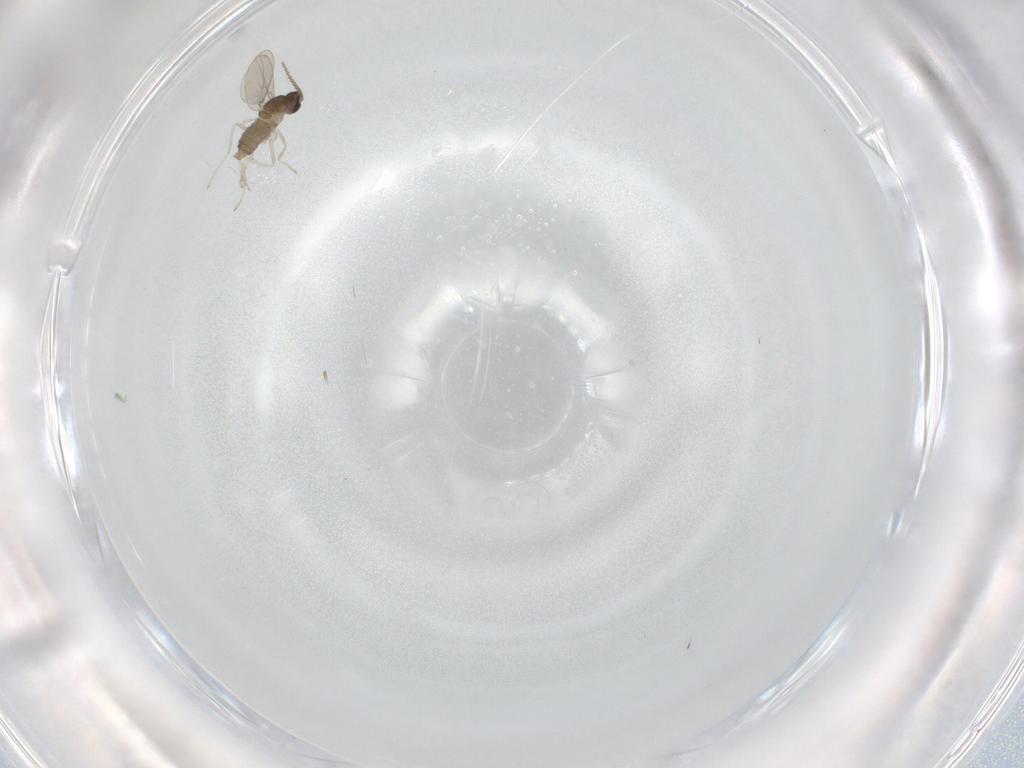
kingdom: Animalia
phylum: Arthropoda
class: Insecta
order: Diptera
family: Cecidomyiidae
